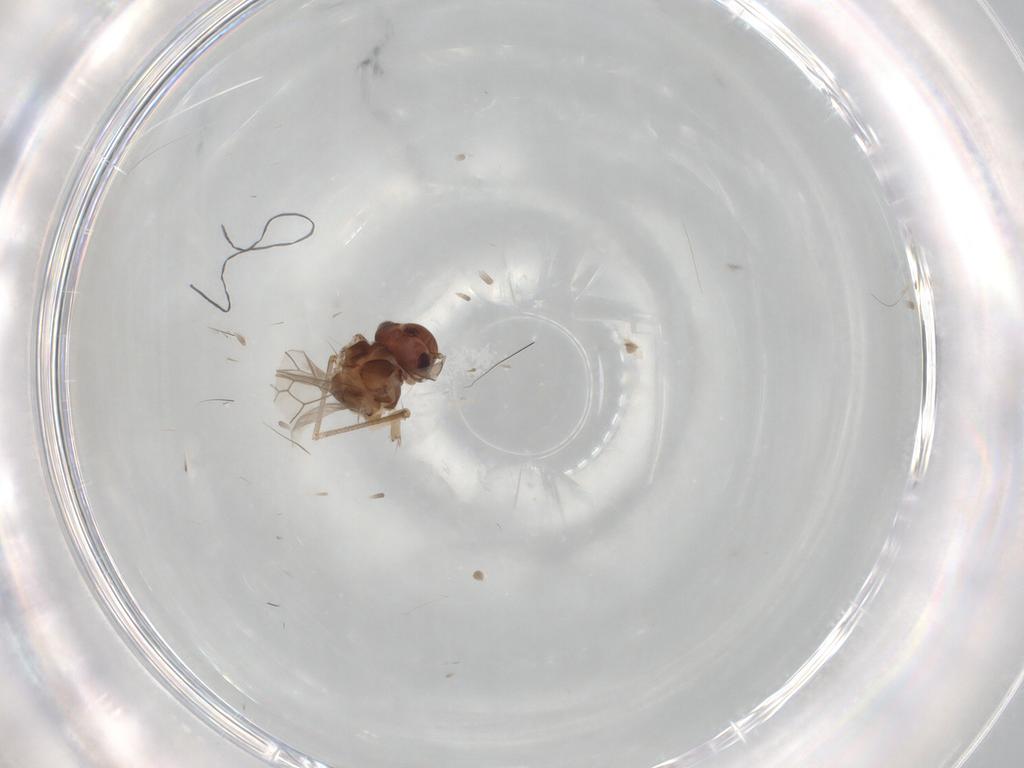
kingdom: Animalia
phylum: Arthropoda
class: Insecta
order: Psocodea
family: Peripsocidae
